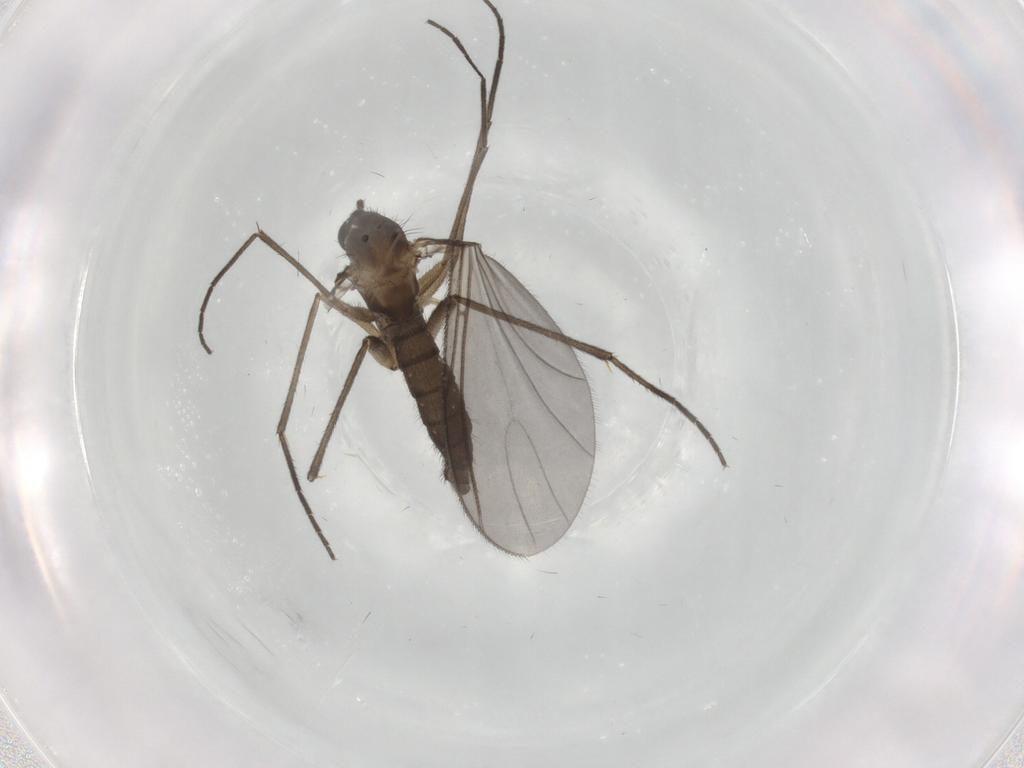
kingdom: Animalia
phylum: Arthropoda
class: Insecta
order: Diptera
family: Sciaridae
